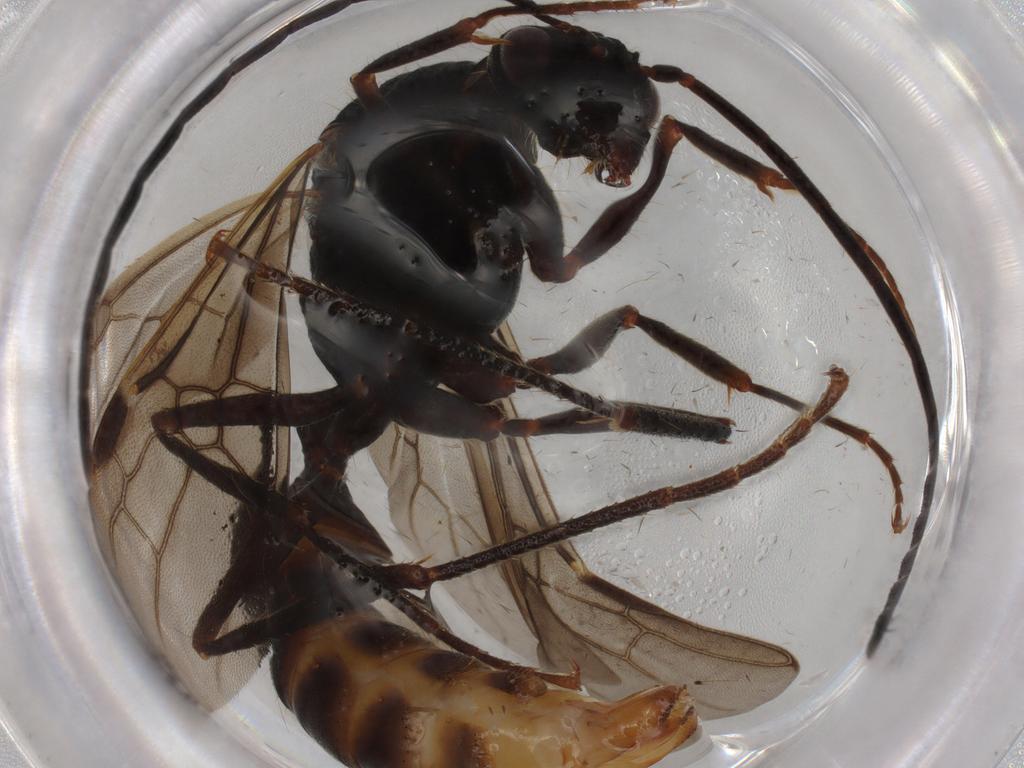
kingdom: Animalia
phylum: Arthropoda
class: Insecta
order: Hymenoptera
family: Formicidae
